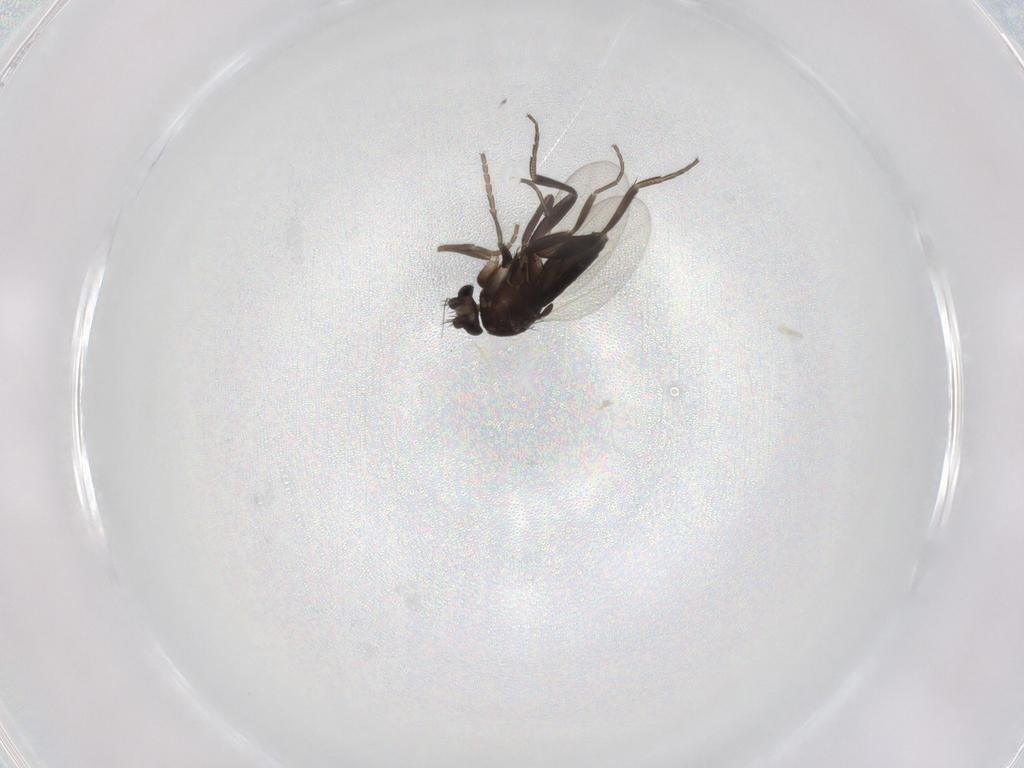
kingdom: Animalia
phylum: Arthropoda
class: Insecta
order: Diptera
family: Phoridae
